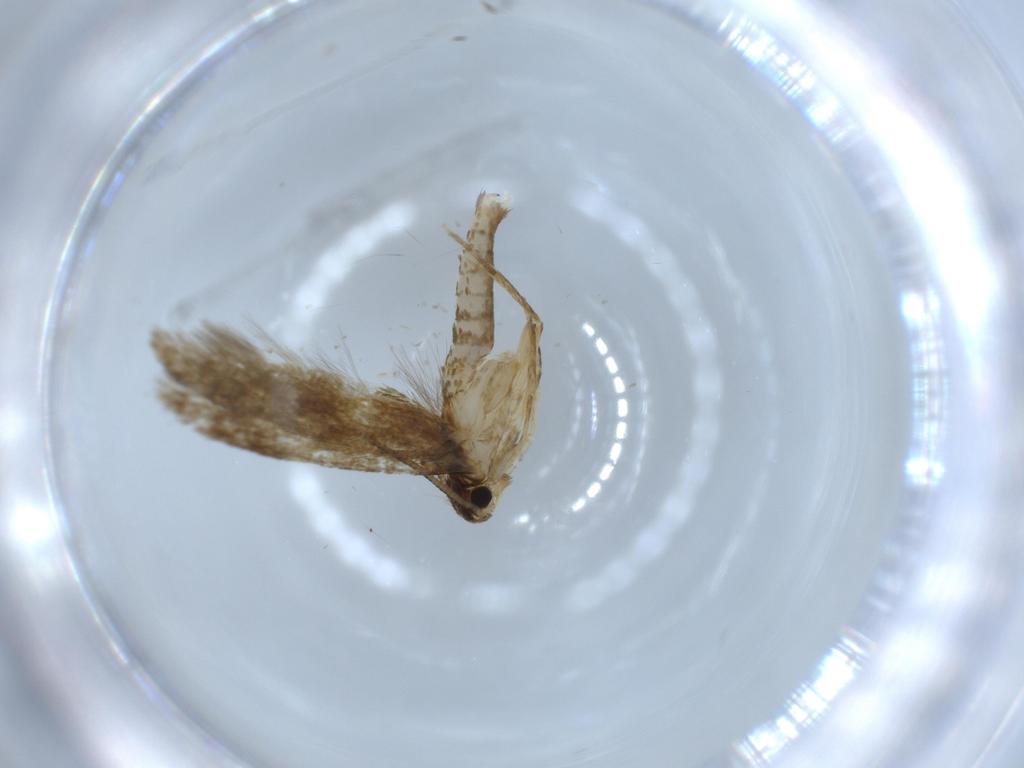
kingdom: Animalia
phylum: Arthropoda
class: Insecta
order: Lepidoptera
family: Tineidae
